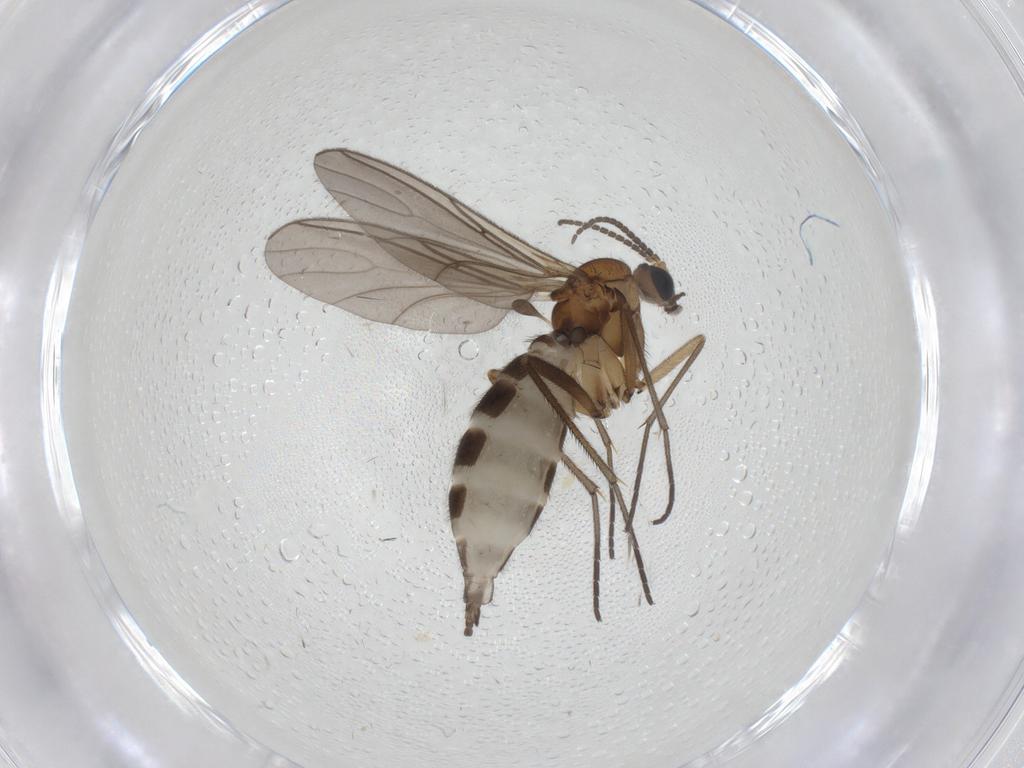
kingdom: Animalia
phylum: Arthropoda
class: Insecta
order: Diptera
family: Sciaridae
